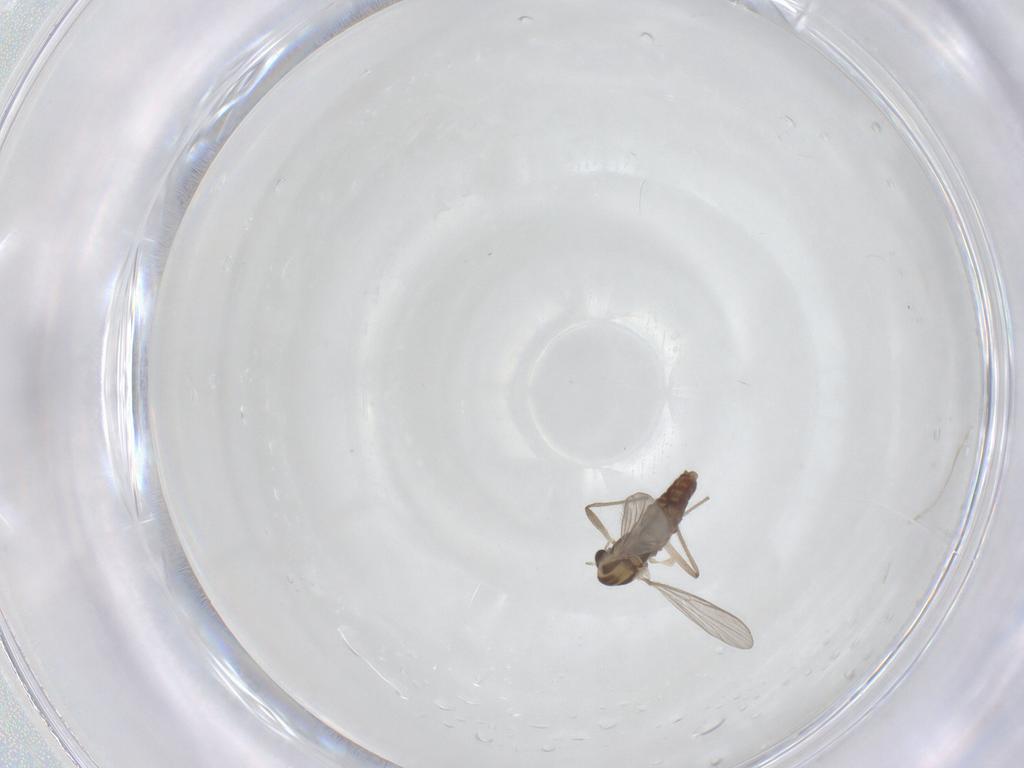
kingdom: Animalia
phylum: Arthropoda
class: Insecta
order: Diptera
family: Chironomidae
